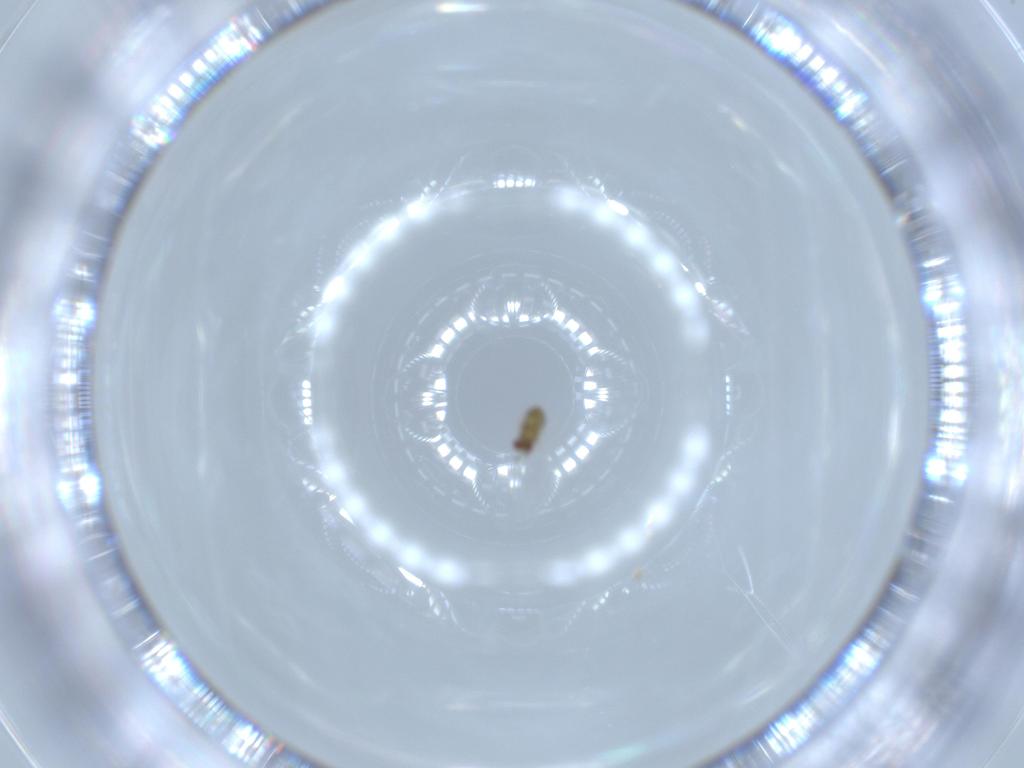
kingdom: Animalia
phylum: Arthropoda
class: Insecta
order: Hymenoptera
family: Trichogrammatidae
